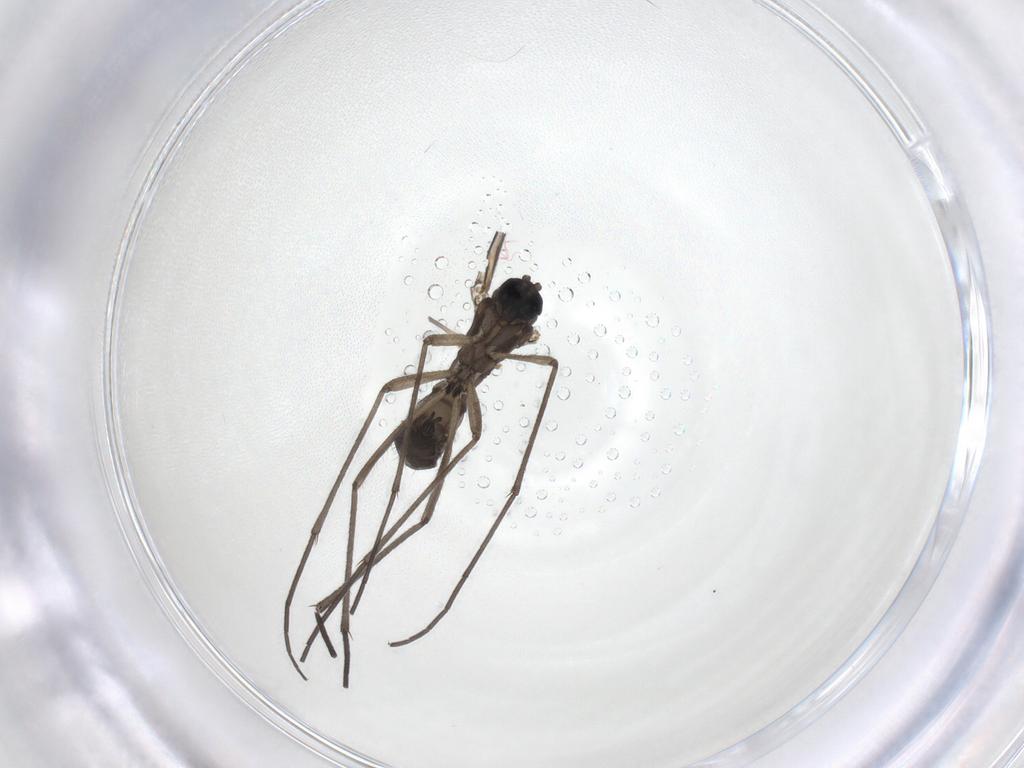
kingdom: Animalia
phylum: Arthropoda
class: Insecta
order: Diptera
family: Sciaridae
